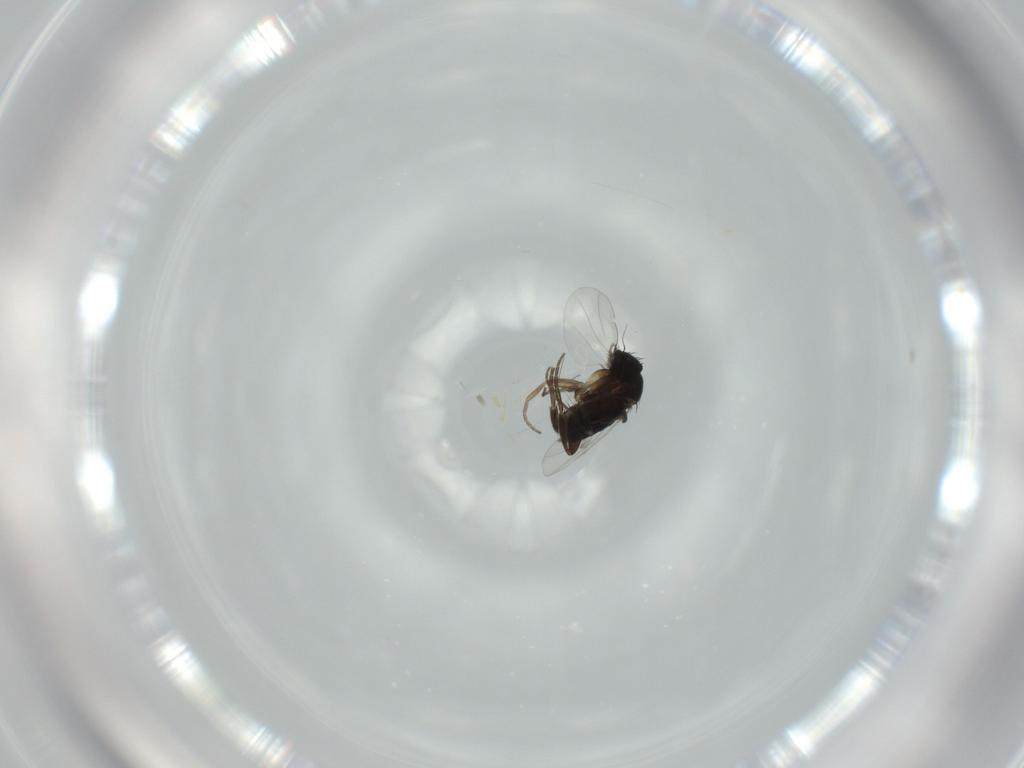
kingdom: Animalia
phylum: Arthropoda
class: Insecta
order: Diptera
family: Phoridae
